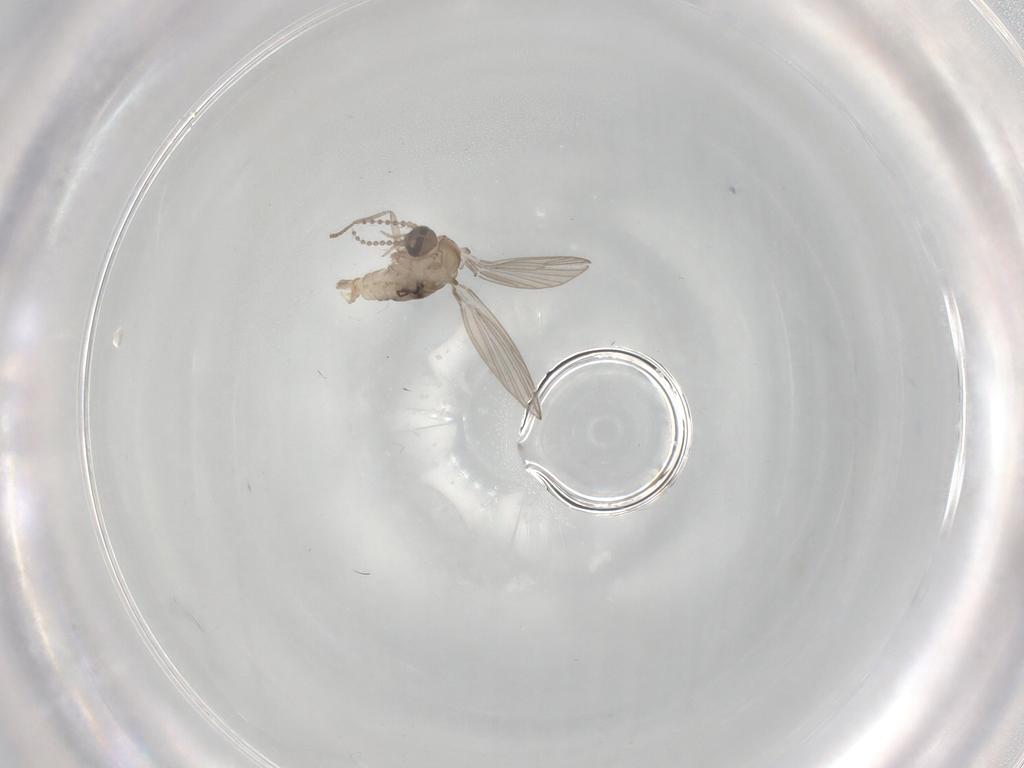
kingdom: Animalia
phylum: Arthropoda
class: Insecta
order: Diptera
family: Psychodidae
